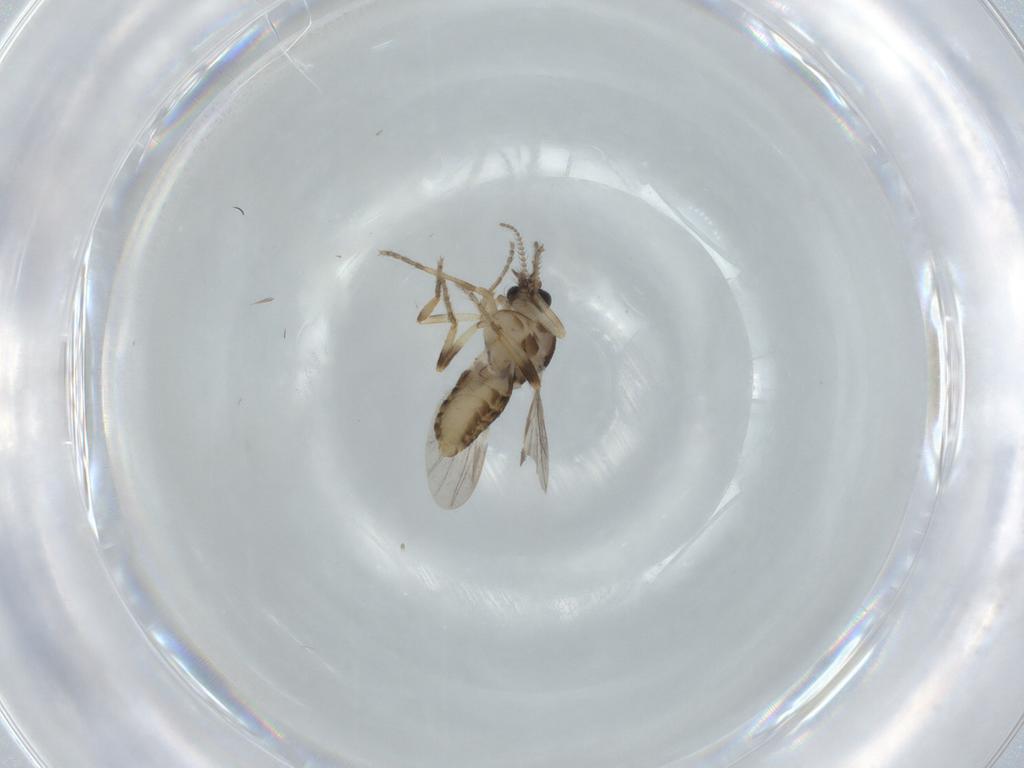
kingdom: Animalia
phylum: Arthropoda
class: Insecta
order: Diptera
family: Ceratopogonidae
